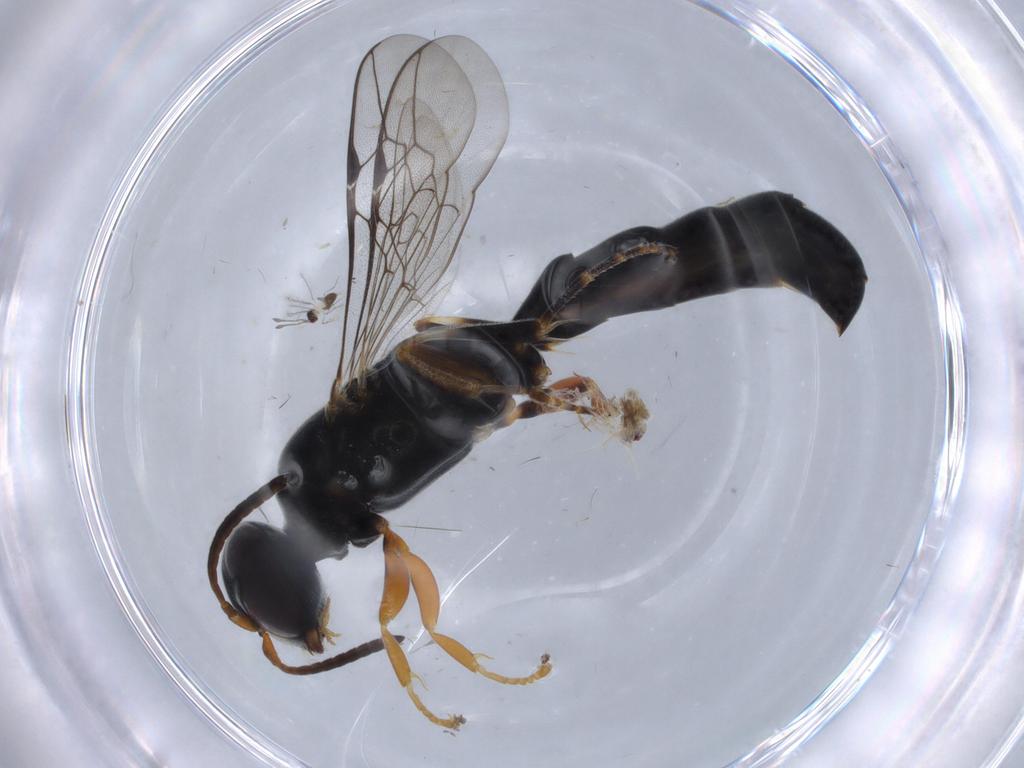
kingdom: Animalia
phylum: Arthropoda
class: Insecta
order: Hymenoptera
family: Crabronidae
